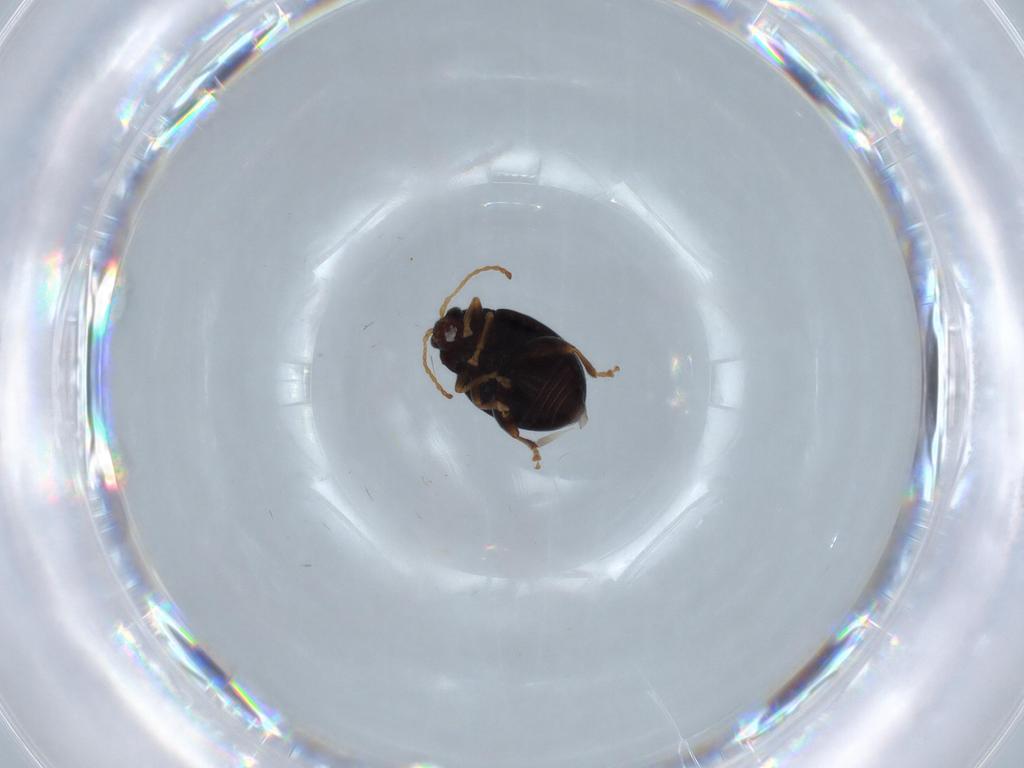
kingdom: Animalia
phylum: Arthropoda
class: Insecta
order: Coleoptera
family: Chrysomelidae
